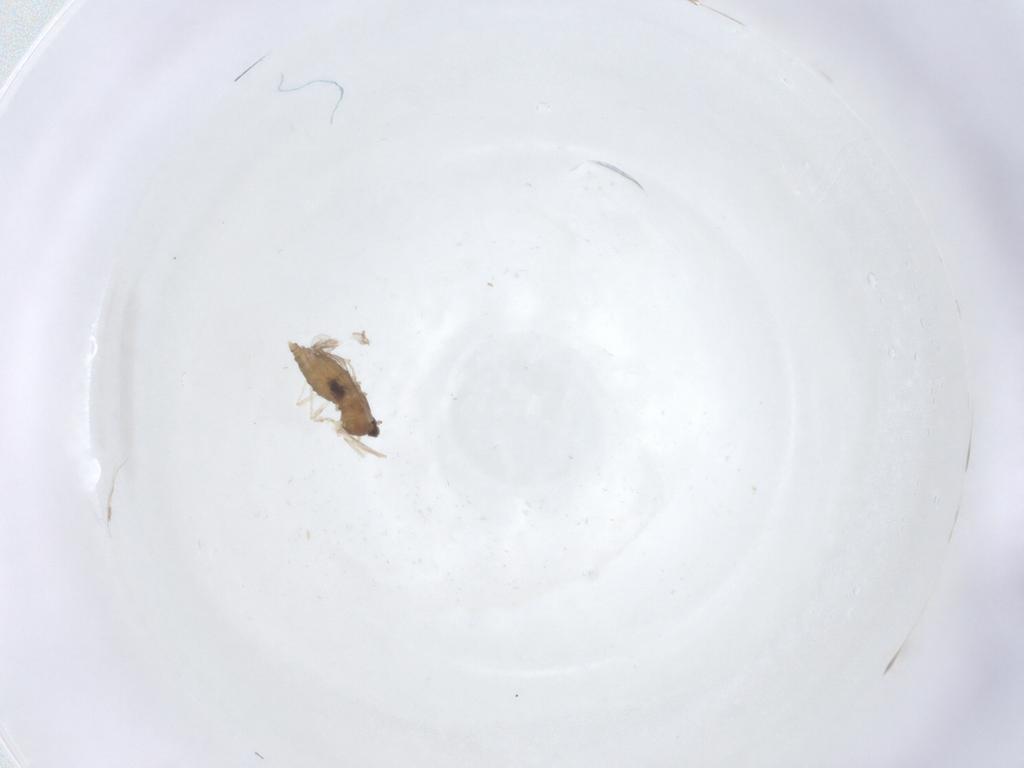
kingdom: Animalia
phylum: Arthropoda
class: Insecta
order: Diptera
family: Cecidomyiidae
